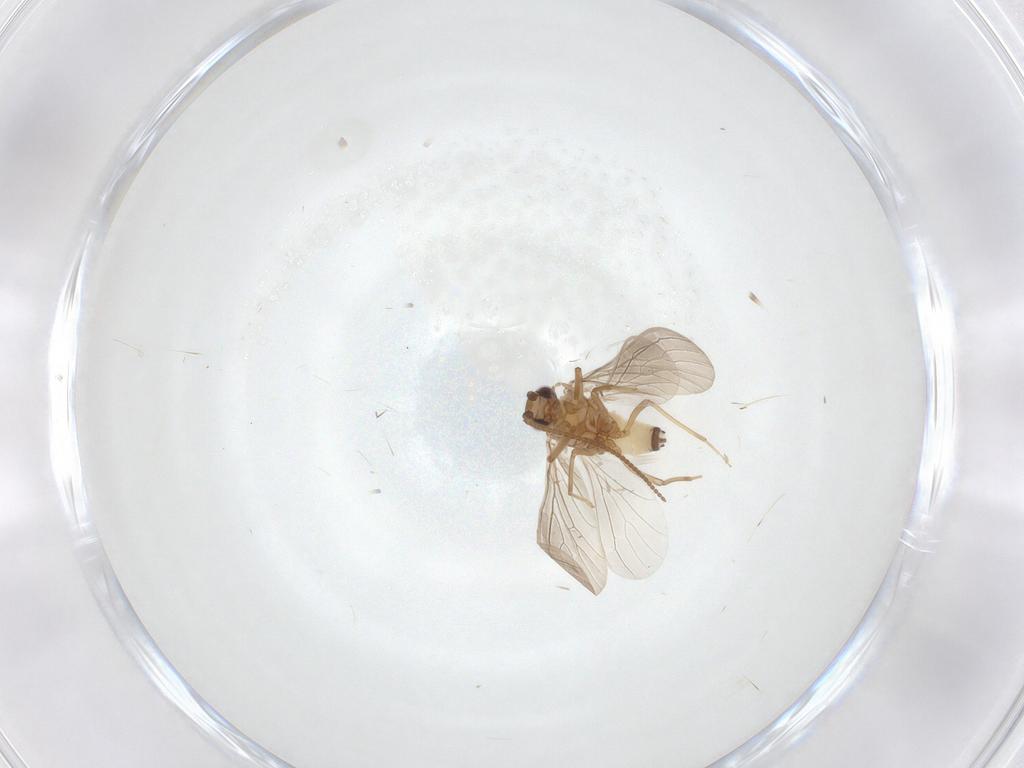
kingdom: Animalia
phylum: Arthropoda
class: Insecta
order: Neuroptera
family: Coniopterygidae
